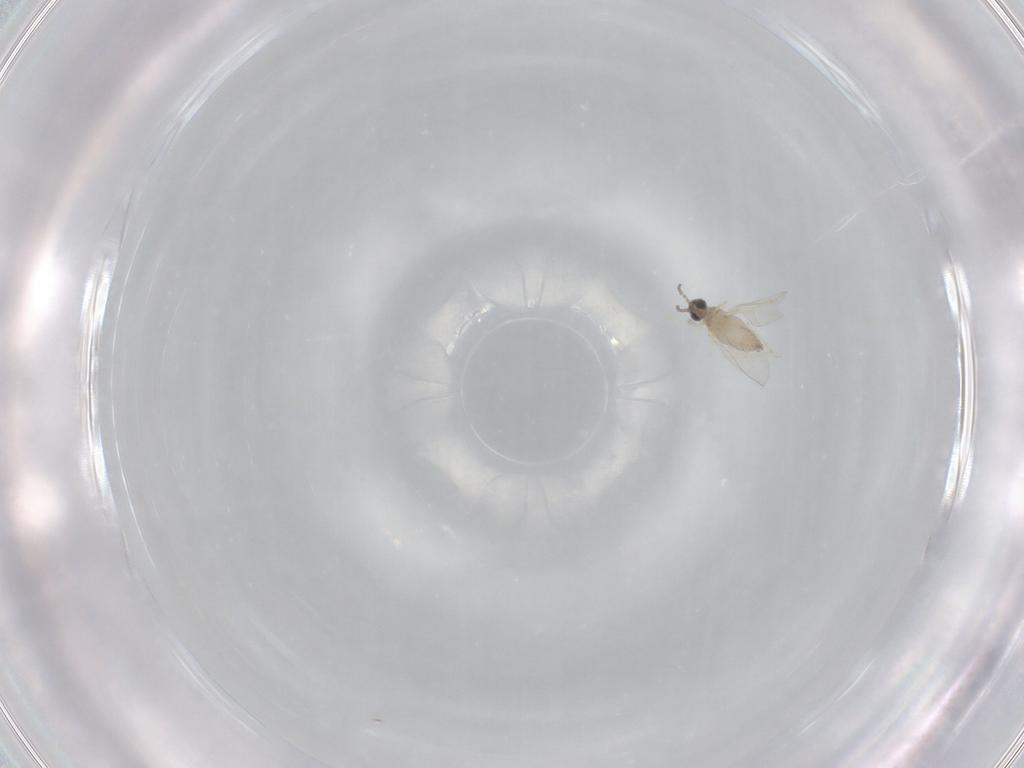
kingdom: Animalia
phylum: Arthropoda
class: Insecta
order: Diptera
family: Cecidomyiidae
